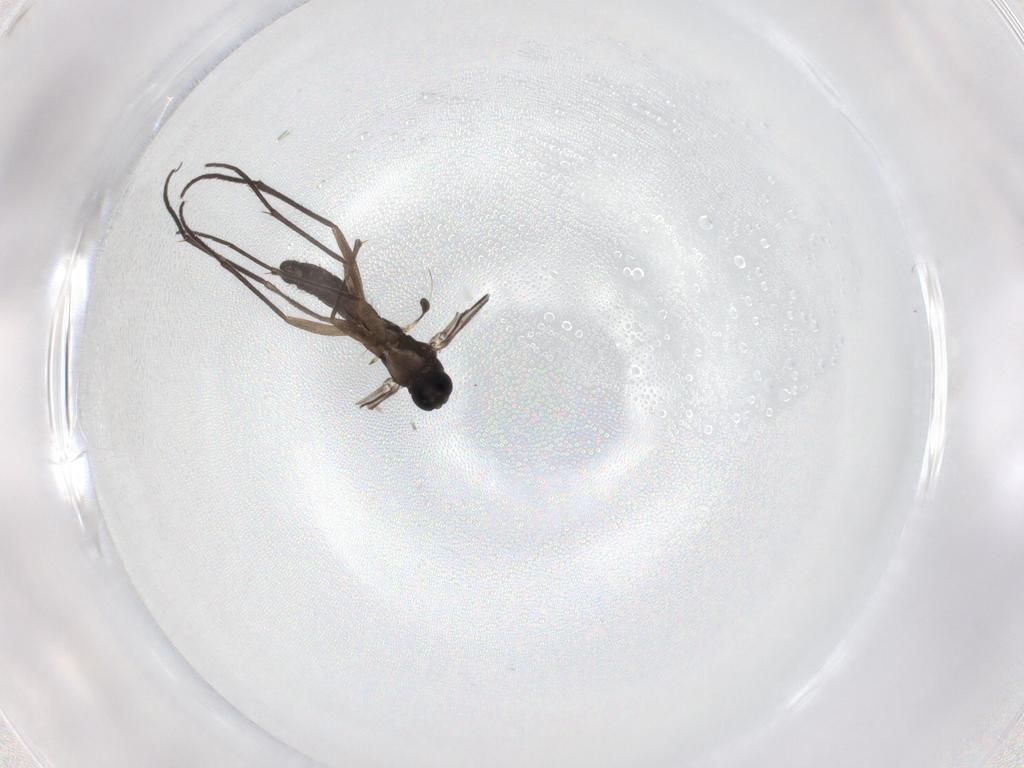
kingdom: Animalia
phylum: Arthropoda
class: Insecta
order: Diptera
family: Sciaridae
